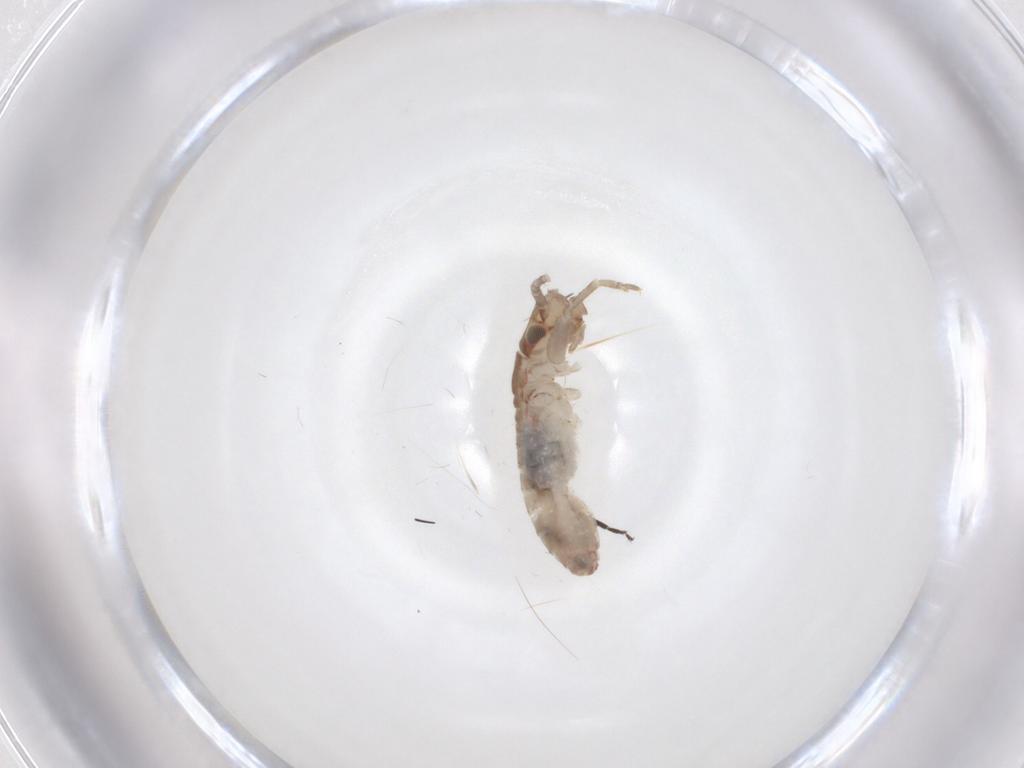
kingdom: Animalia
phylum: Arthropoda
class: Insecta
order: Orthoptera
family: Mogoplistidae
